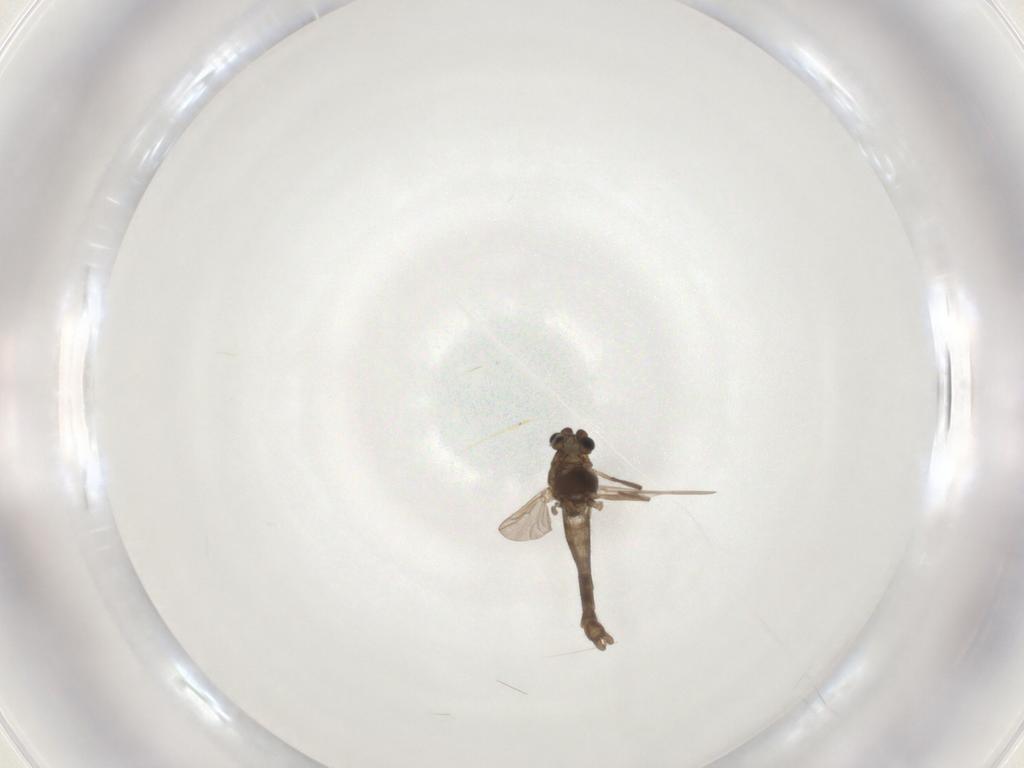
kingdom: Animalia
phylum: Arthropoda
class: Insecta
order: Diptera
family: Chironomidae
